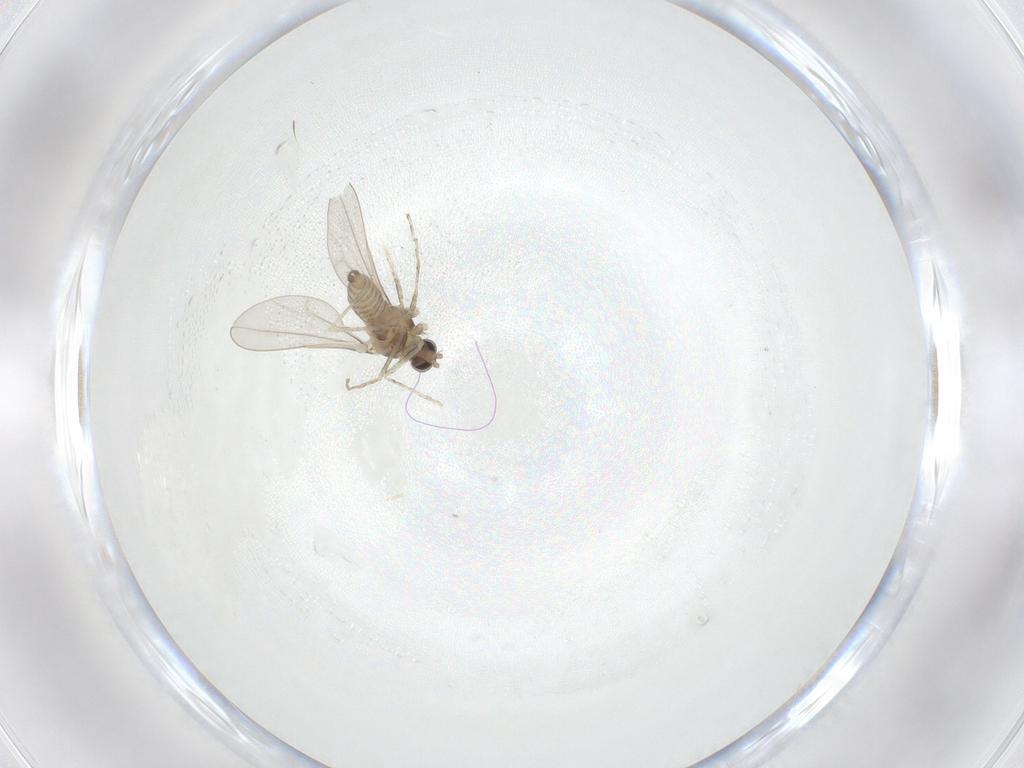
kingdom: Animalia
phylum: Arthropoda
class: Insecta
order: Diptera
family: Cecidomyiidae
